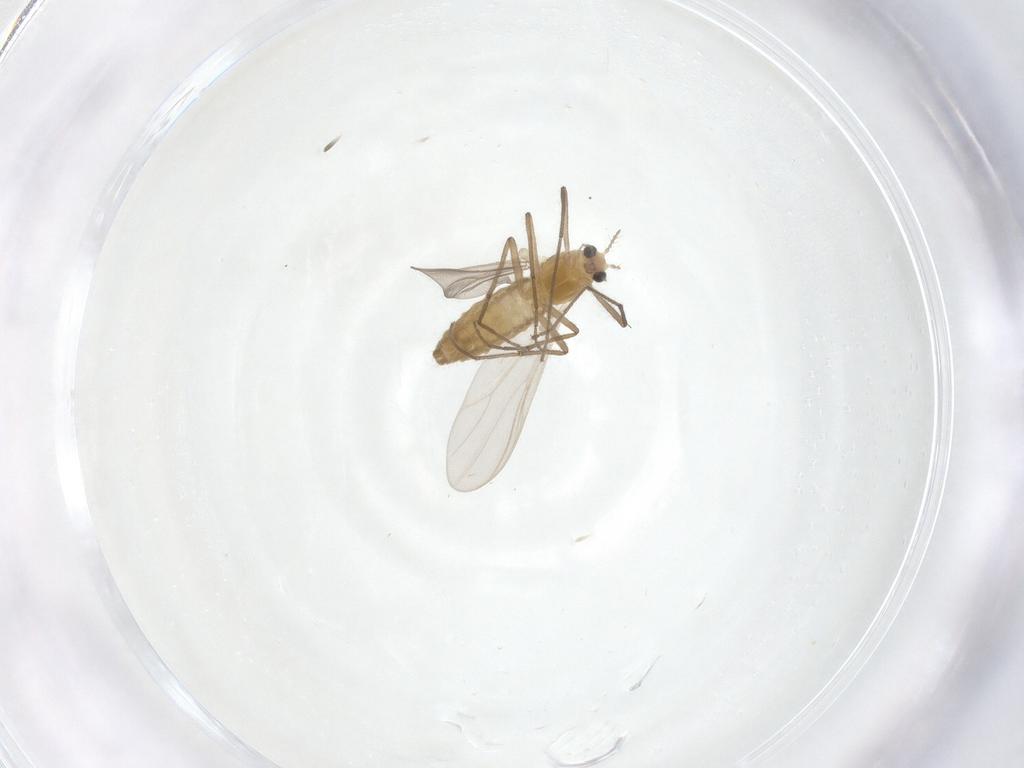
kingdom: Animalia
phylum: Arthropoda
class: Insecta
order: Diptera
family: Chironomidae
